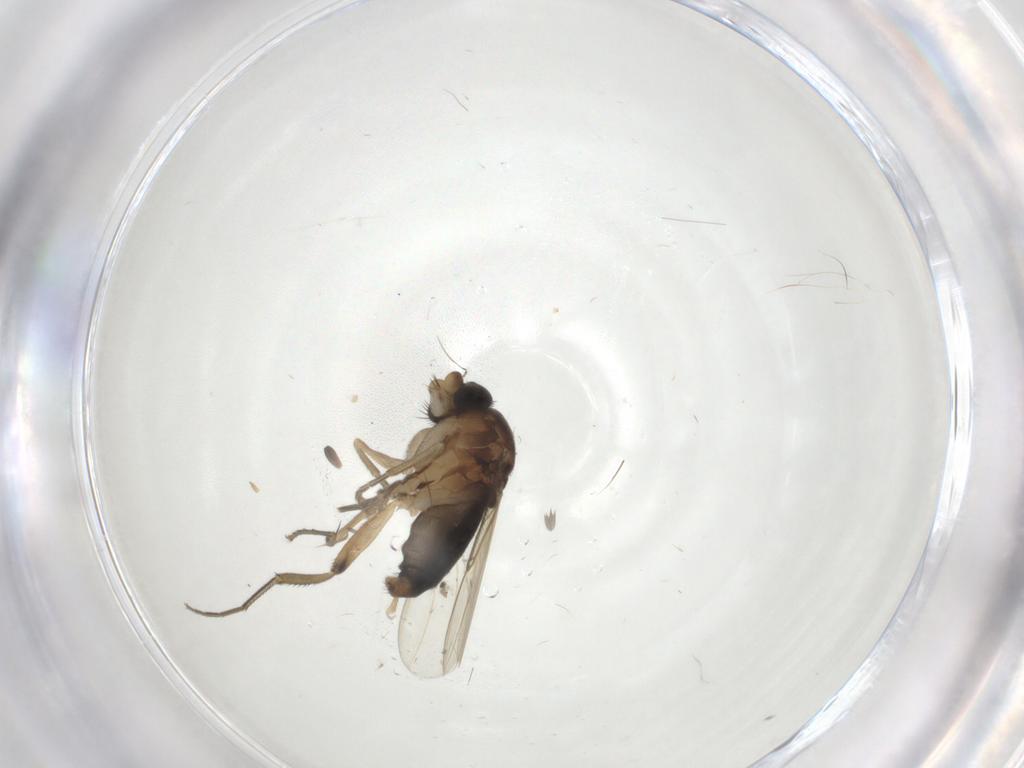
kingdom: Animalia
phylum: Arthropoda
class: Insecta
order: Diptera
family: Phoridae
